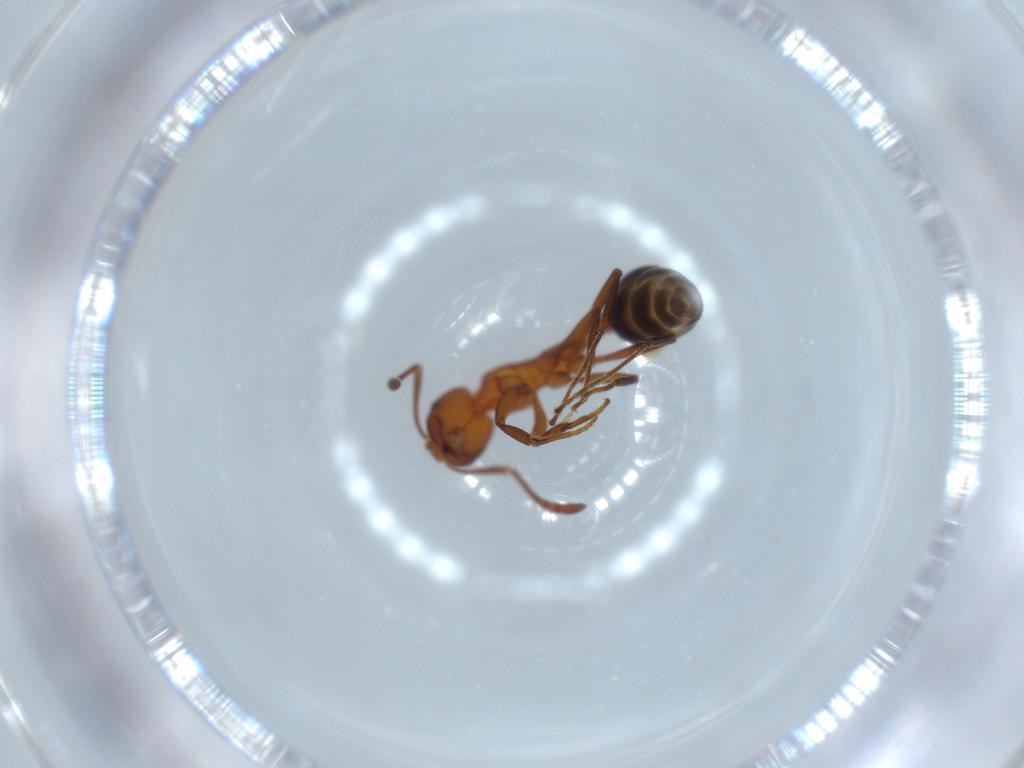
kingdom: Animalia
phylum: Arthropoda
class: Insecta
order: Hymenoptera
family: Formicidae
